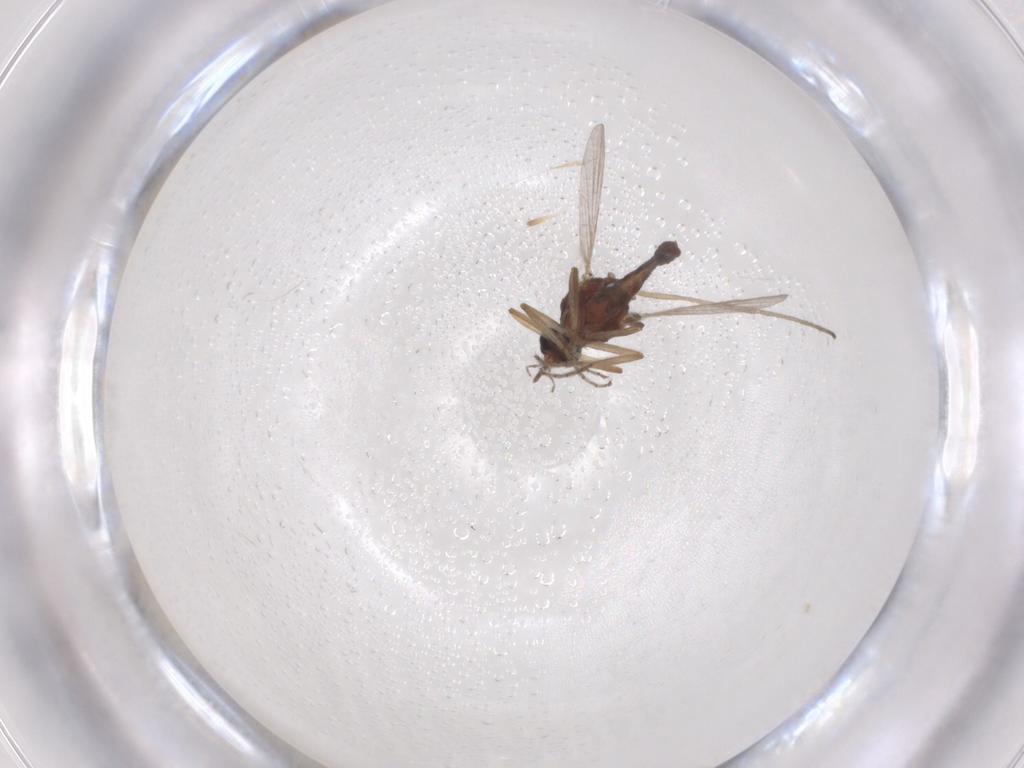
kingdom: Animalia
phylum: Arthropoda
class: Insecta
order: Diptera
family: Ceratopogonidae
